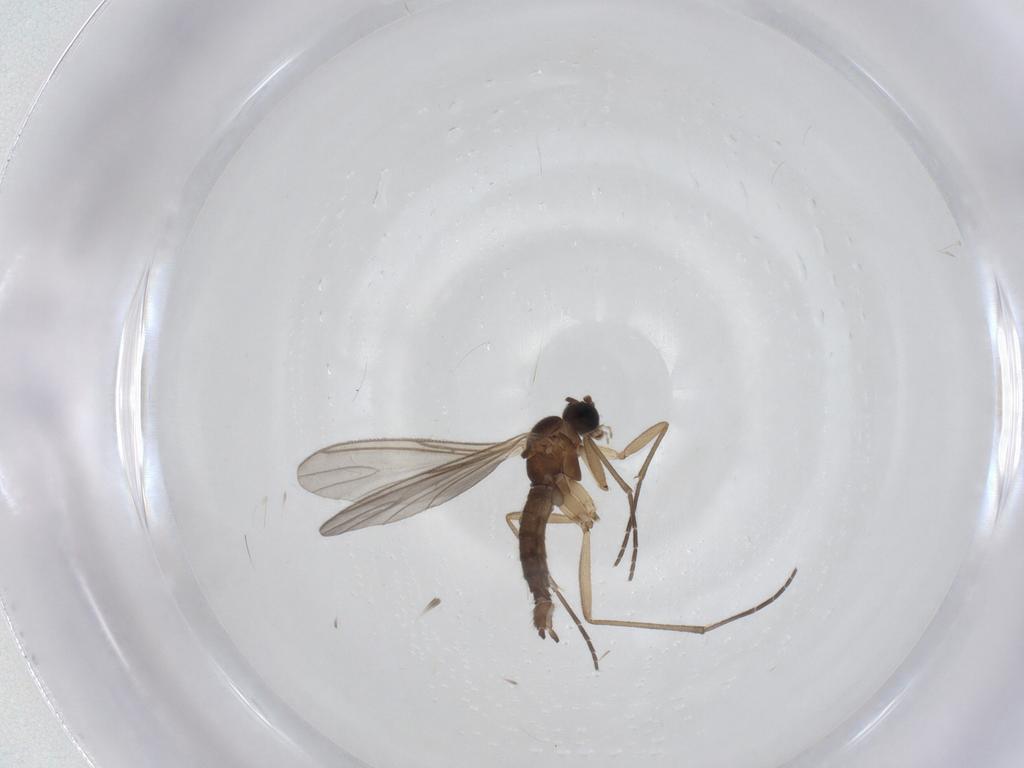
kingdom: Animalia
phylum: Arthropoda
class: Insecta
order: Diptera
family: Sciaridae
